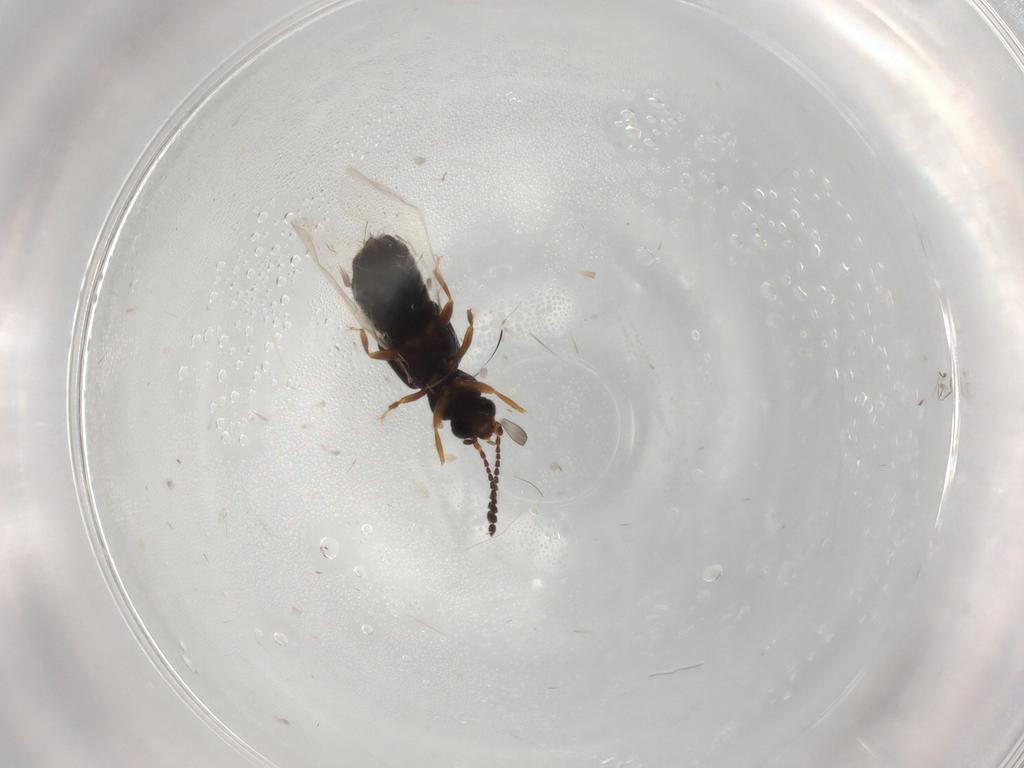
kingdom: Animalia
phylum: Arthropoda
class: Insecta
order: Coleoptera
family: Staphylinidae
